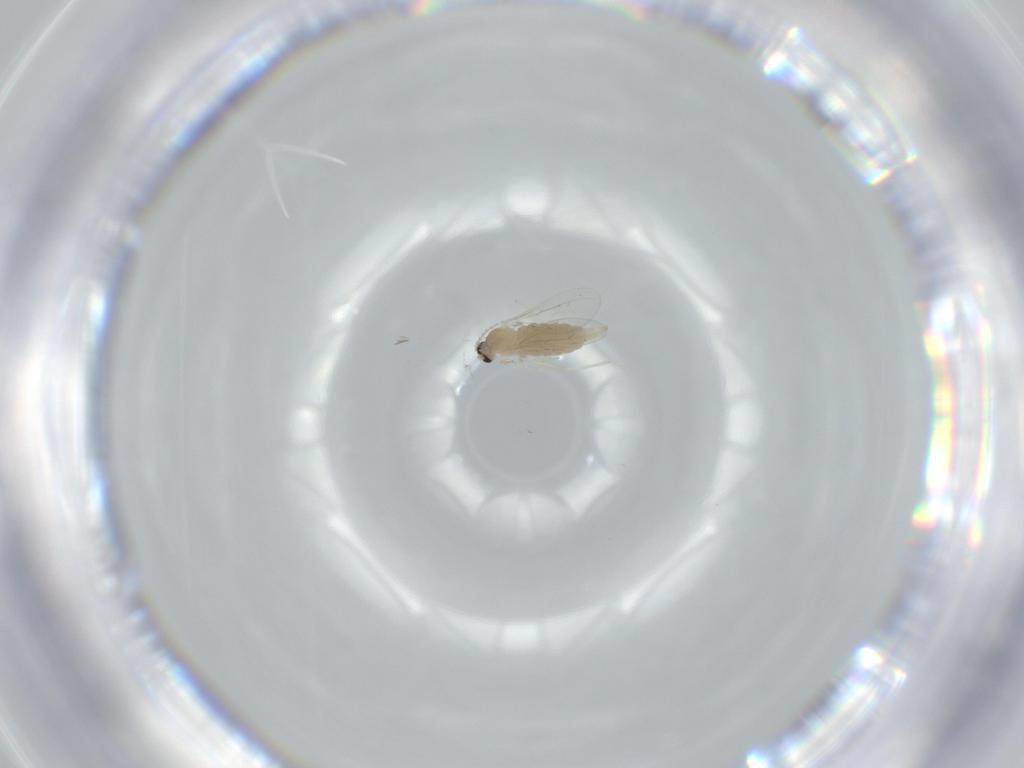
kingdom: Animalia
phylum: Arthropoda
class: Insecta
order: Diptera
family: Cecidomyiidae
